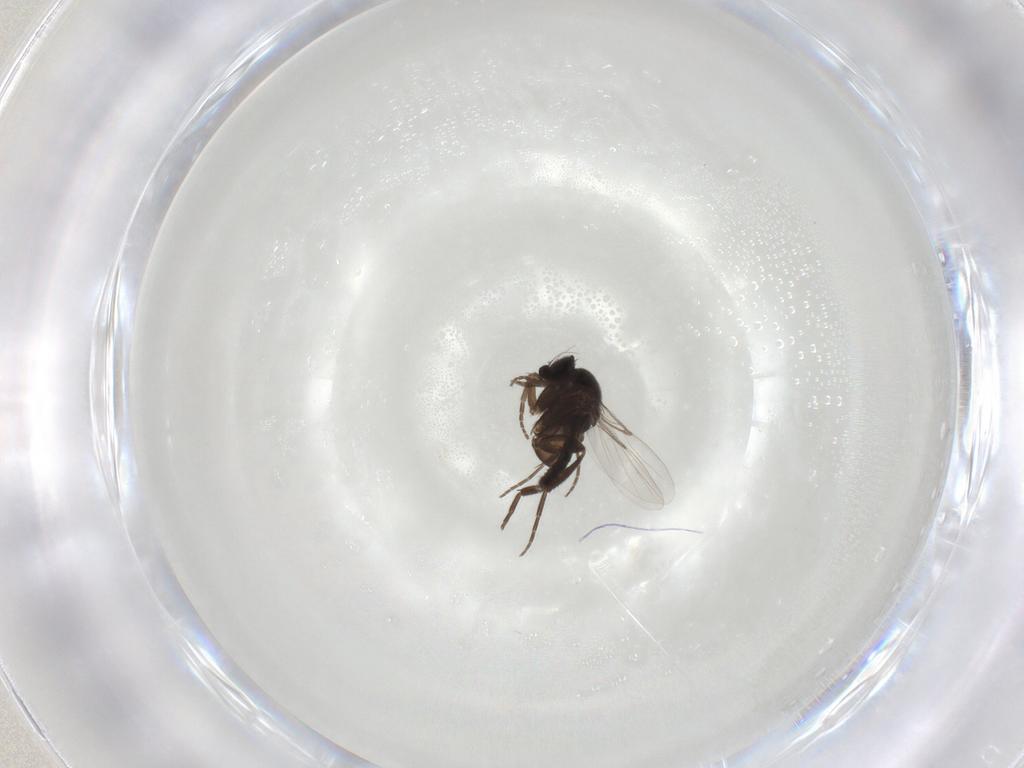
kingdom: Animalia
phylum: Arthropoda
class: Insecta
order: Diptera
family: Phoridae
